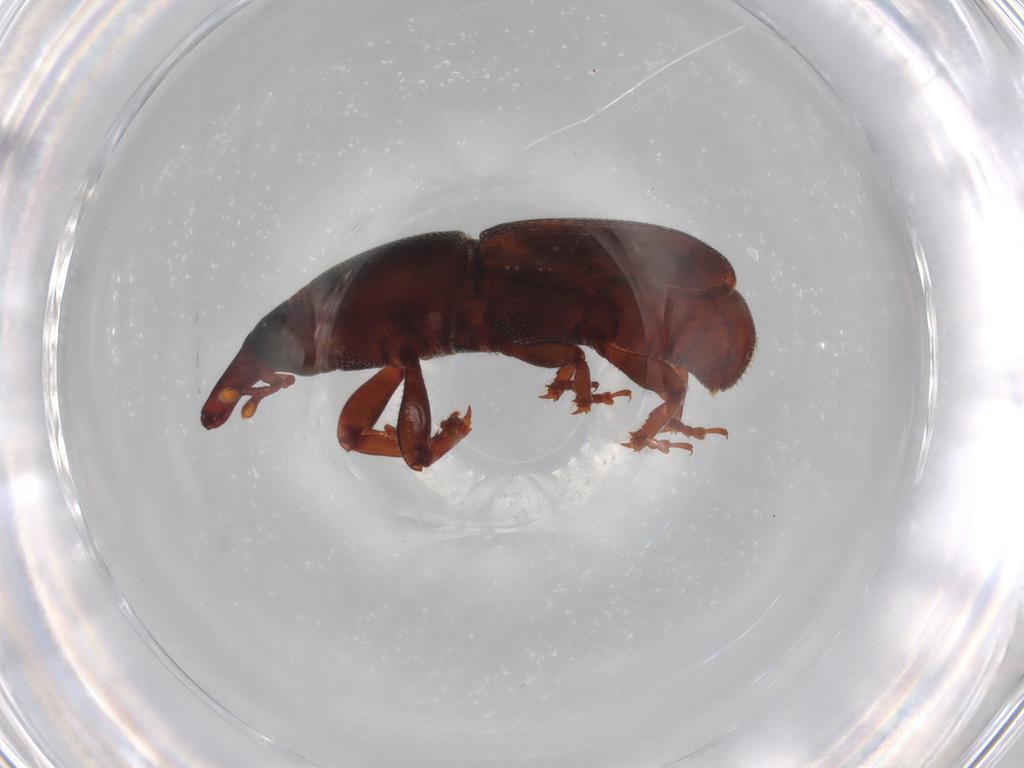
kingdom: Animalia
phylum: Arthropoda
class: Insecta
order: Coleoptera
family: Curculionidae
